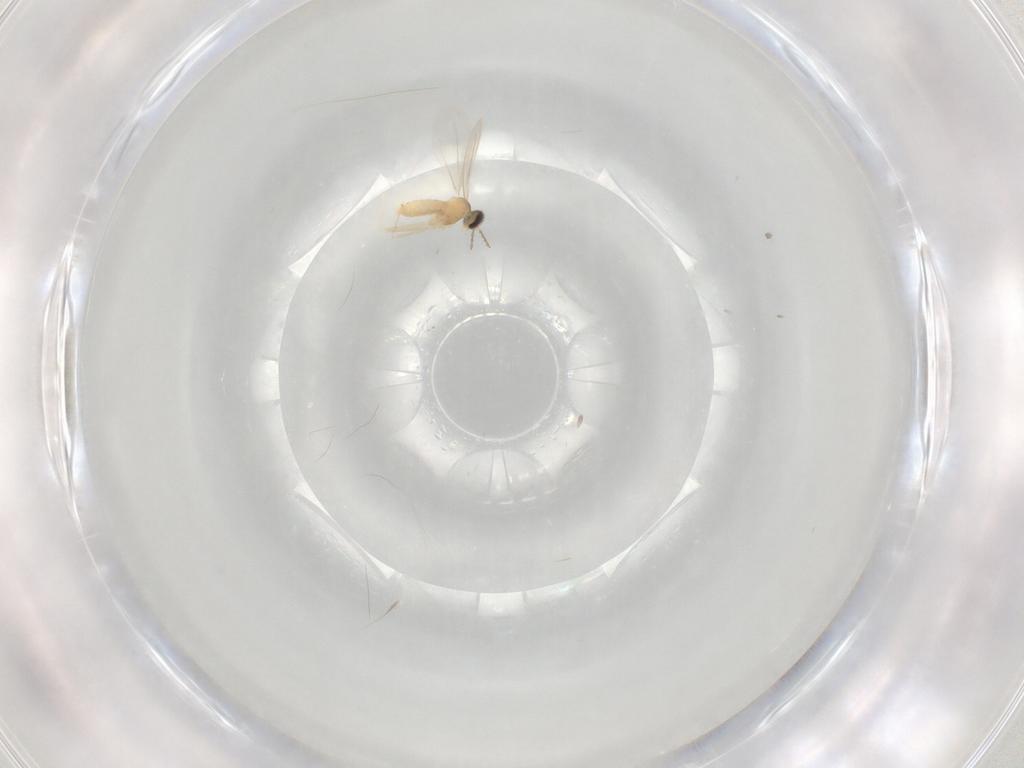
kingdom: Animalia
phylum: Arthropoda
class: Insecta
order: Diptera
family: Cecidomyiidae
